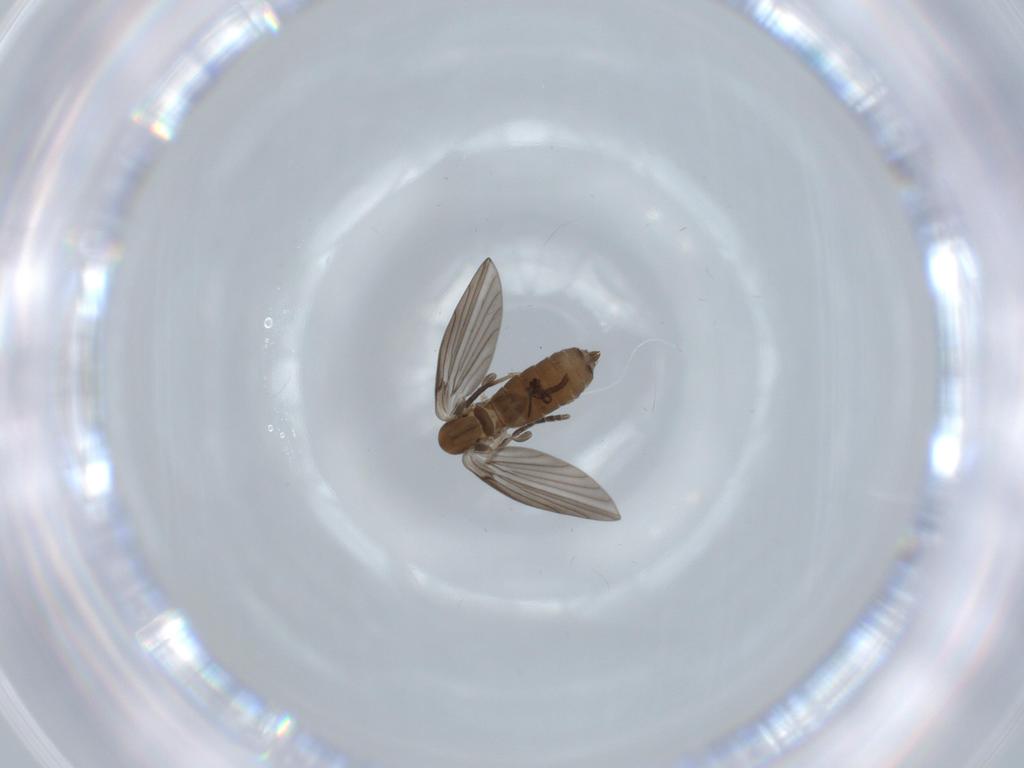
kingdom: Animalia
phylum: Arthropoda
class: Insecta
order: Diptera
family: Psychodidae
